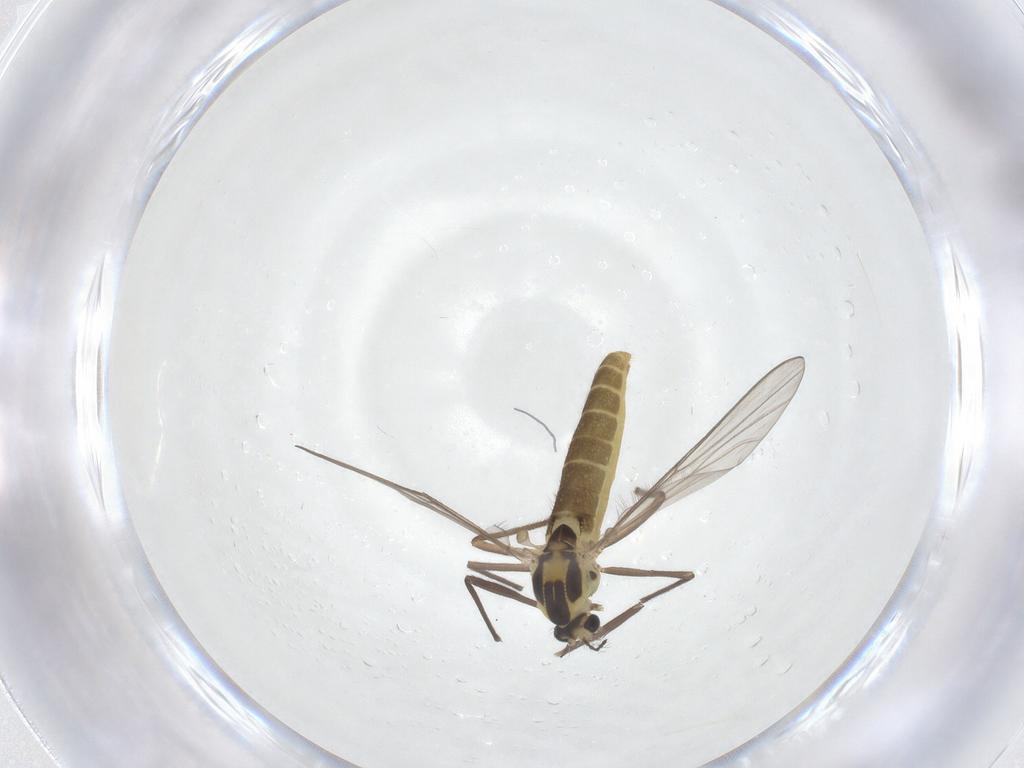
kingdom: Animalia
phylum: Arthropoda
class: Insecta
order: Diptera
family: Chironomidae
